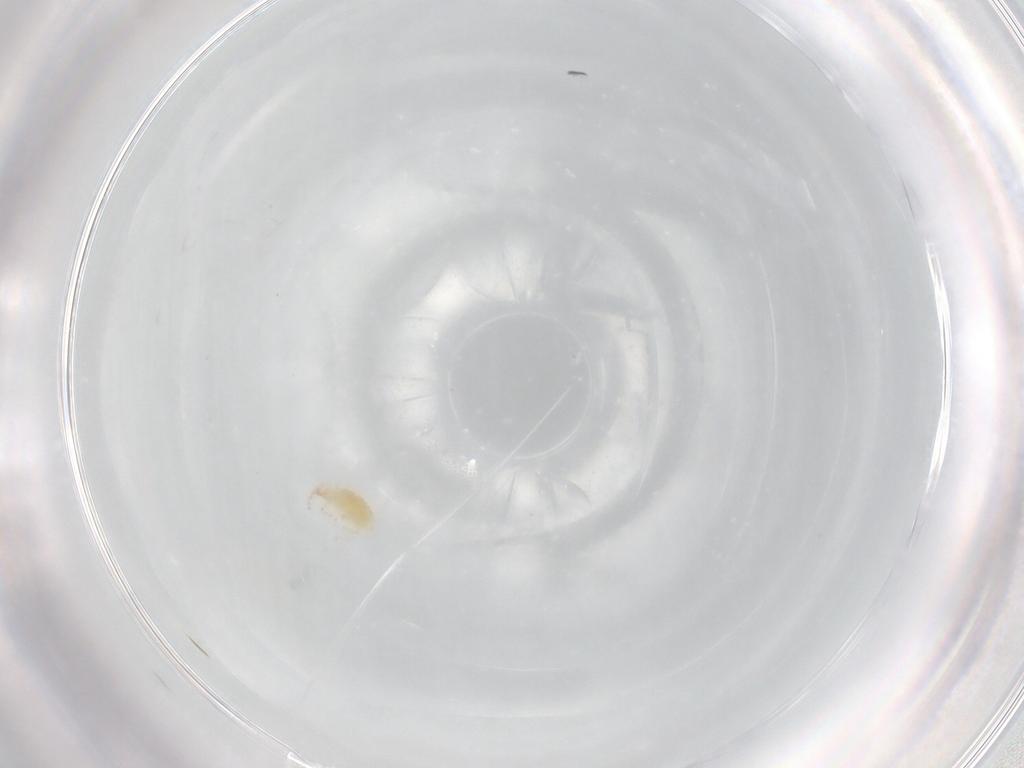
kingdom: Animalia
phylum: Arthropoda
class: Arachnida
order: Trombidiformes
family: Stigmaeidae
